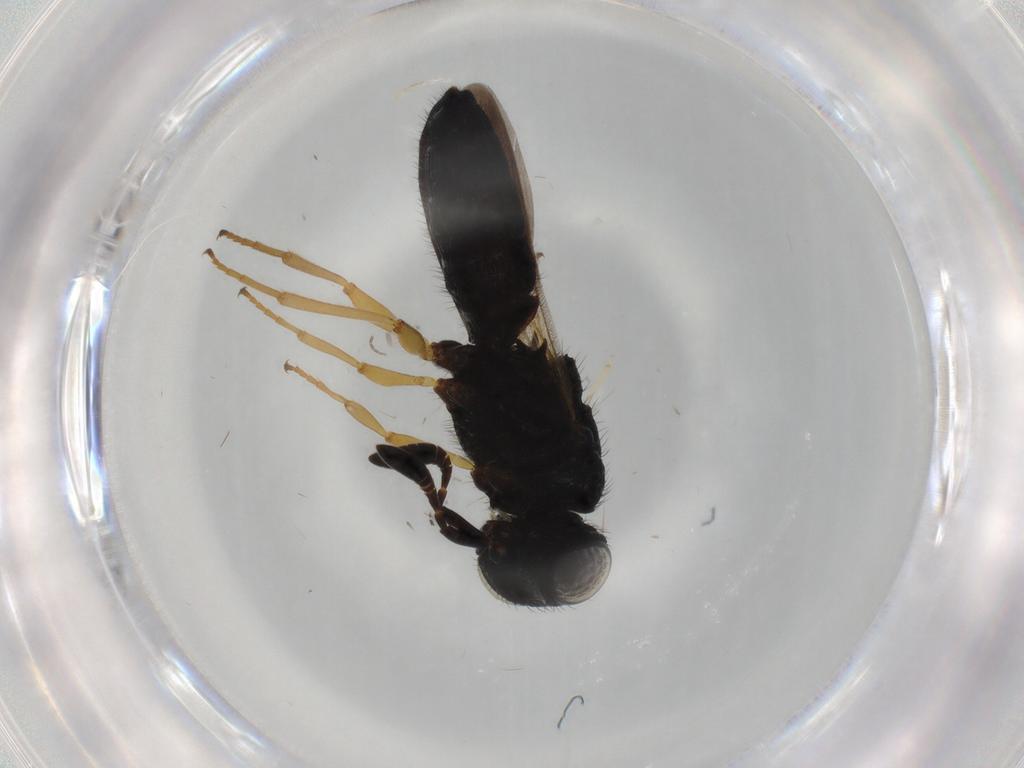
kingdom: Animalia
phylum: Arthropoda
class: Insecta
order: Hymenoptera
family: Scelionidae
